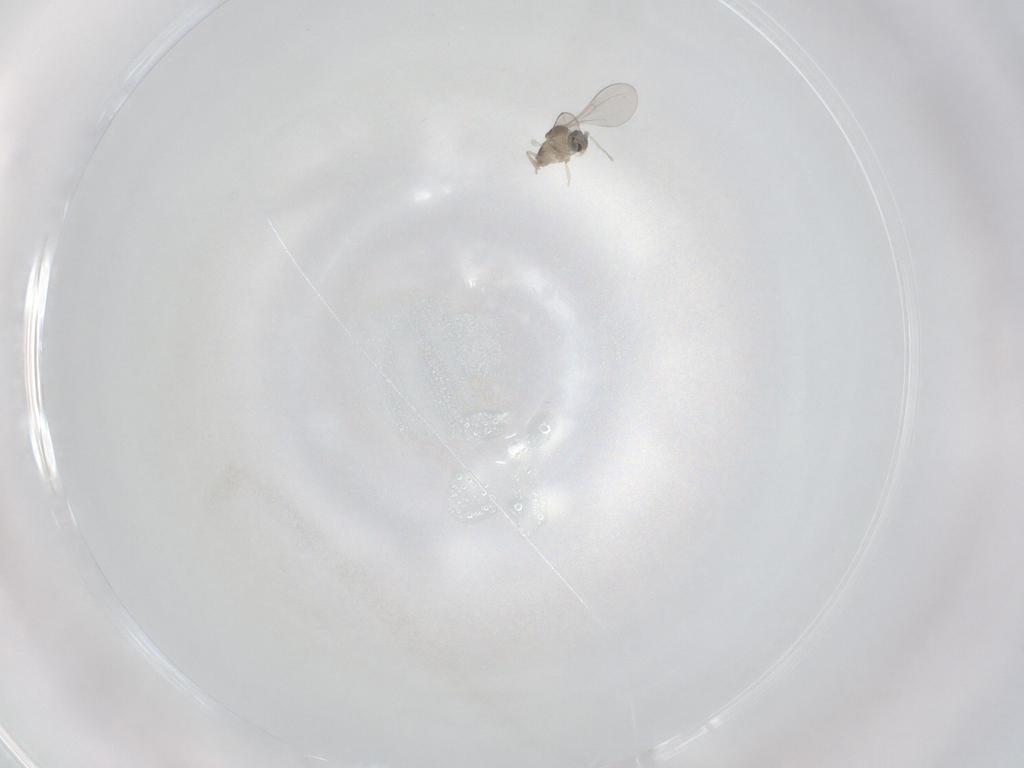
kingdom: Animalia
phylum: Arthropoda
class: Insecta
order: Diptera
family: Cecidomyiidae
